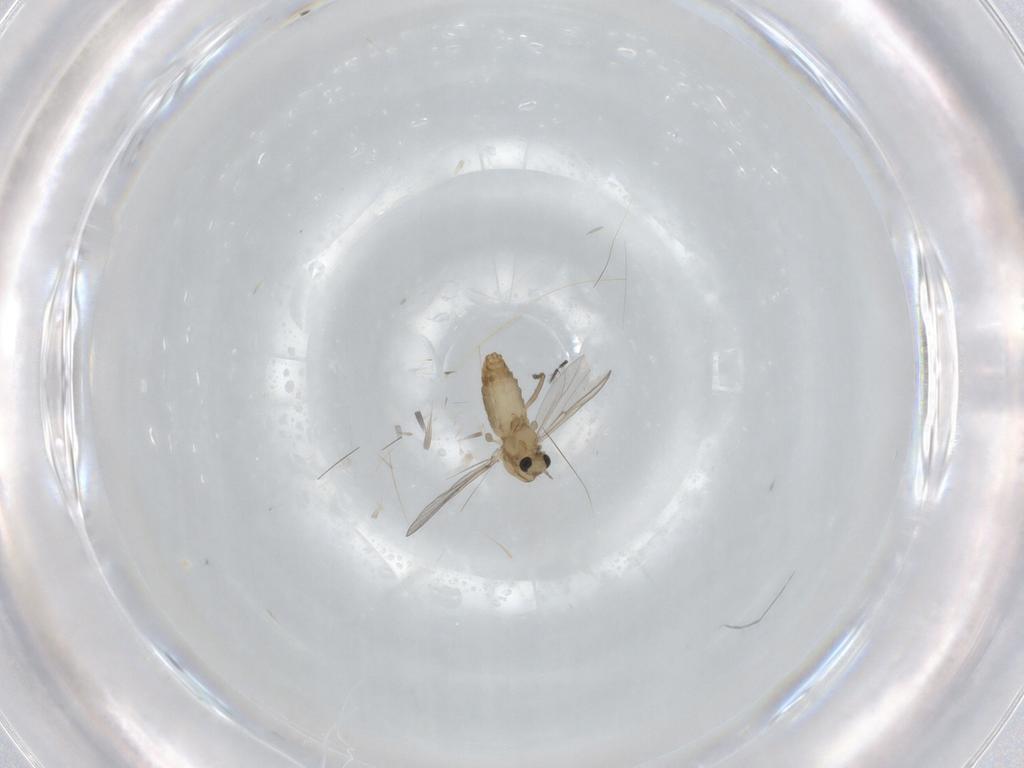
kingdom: Animalia
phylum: Arthropoda
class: Insecta
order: Diptera
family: Chironomidae
